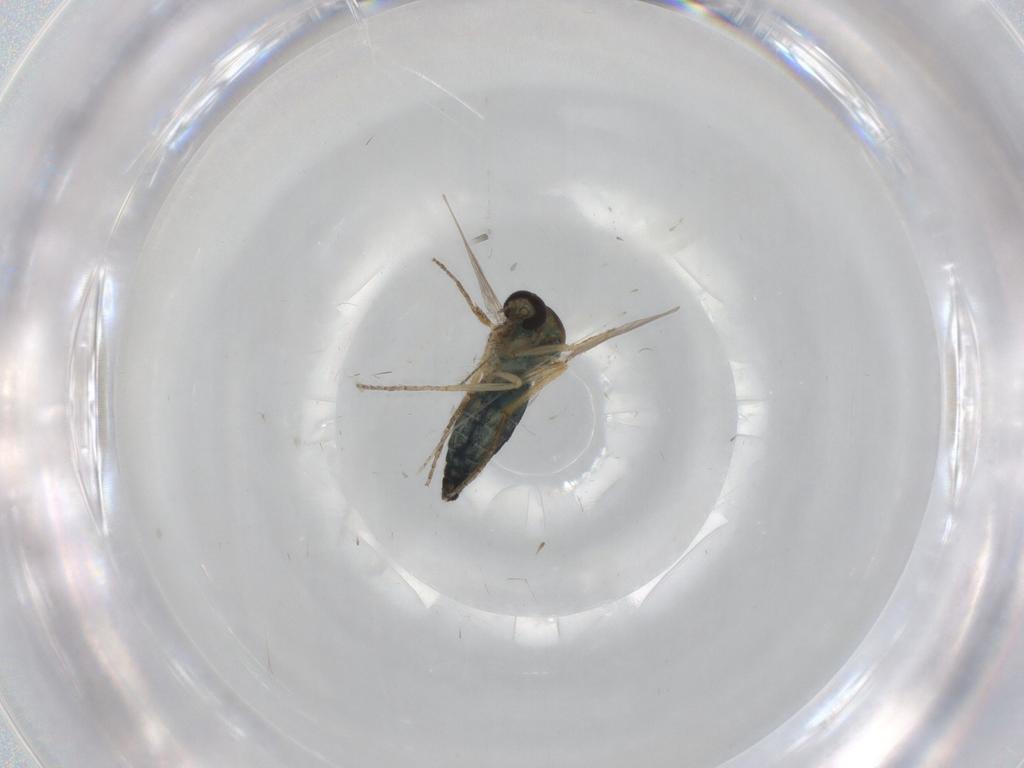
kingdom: Animalia
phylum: Arthropoda
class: Insecta
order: Diptera
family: Ceratopogonidae
